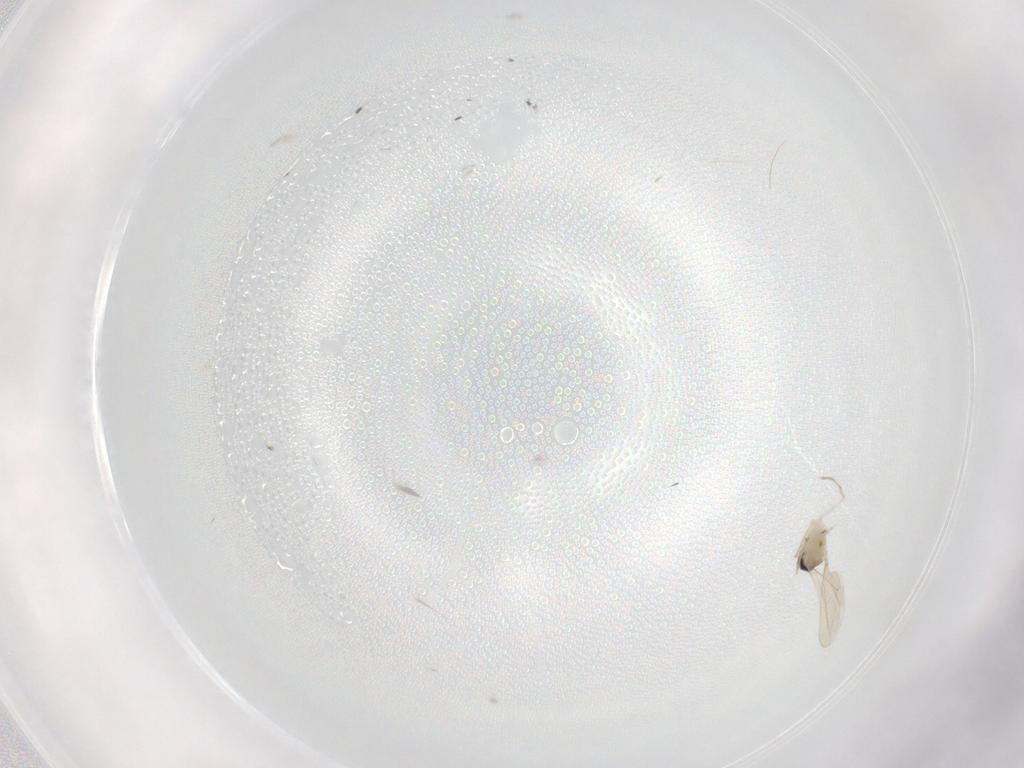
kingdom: Animalia
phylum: Arthropoda
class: Insecta
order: Diptera
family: Cecidomyiidae
